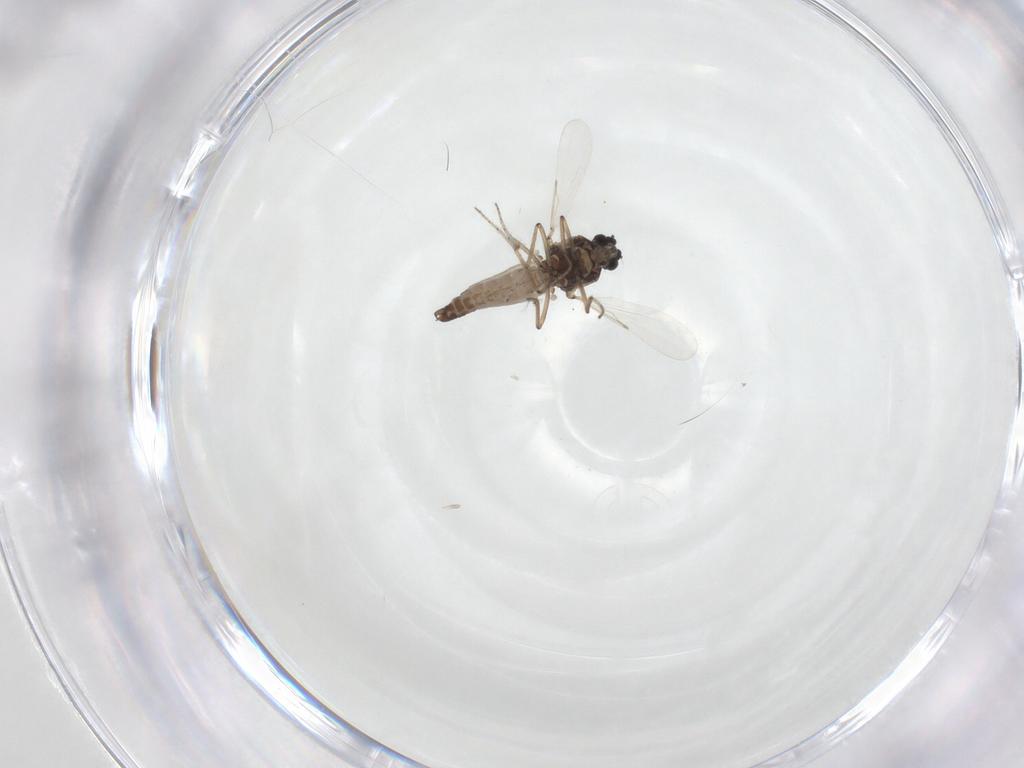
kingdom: Animalia
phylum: Arthropoda
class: Insecta
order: Diptera
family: Ceratopogonidae
